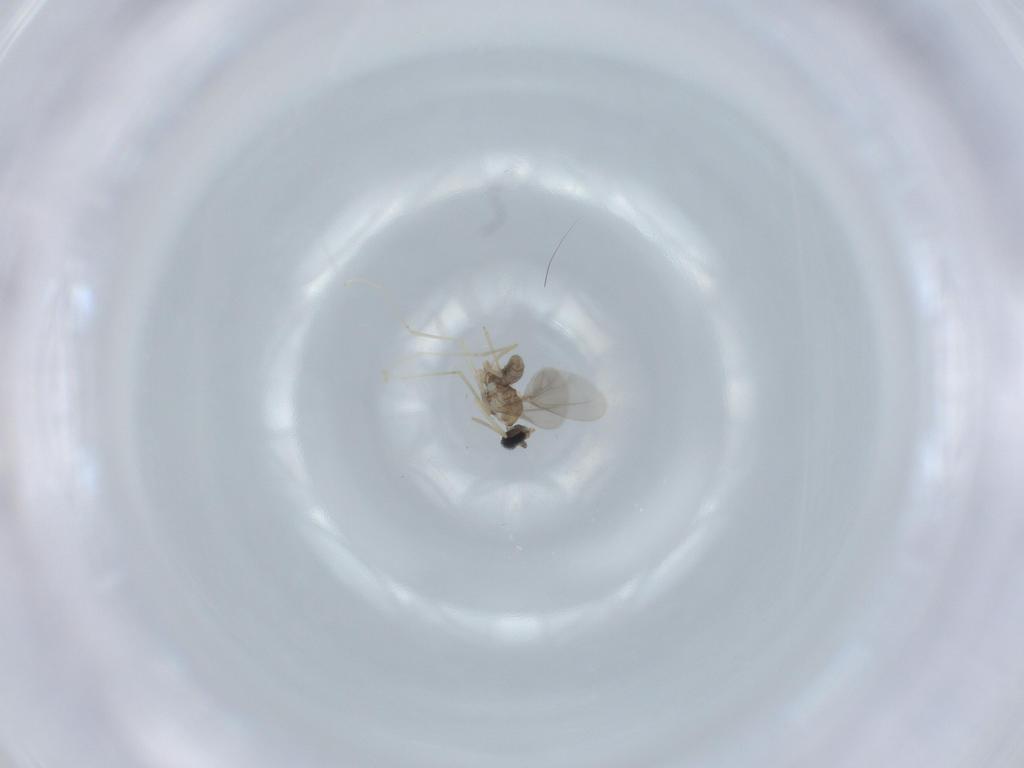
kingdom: Animalia
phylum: Arthropoda
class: Insecta
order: Diptera
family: Cecidomyiidae
